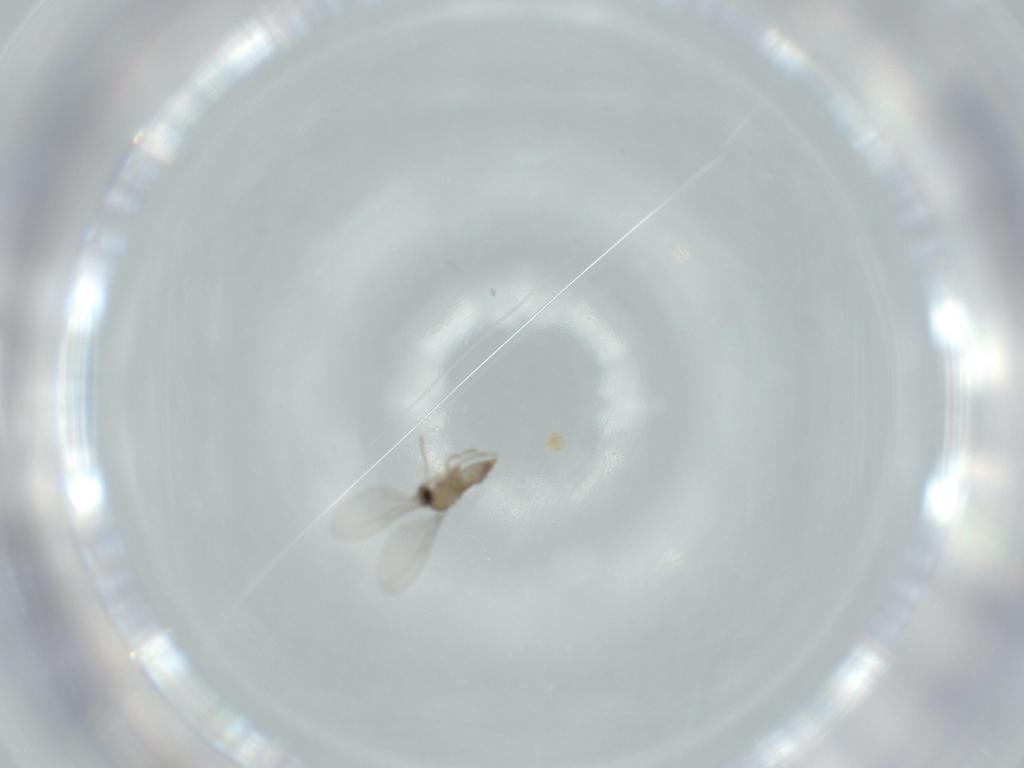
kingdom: Animalia
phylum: Arthropoda
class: Insecta
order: Diptera
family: Cecidomyiidae
